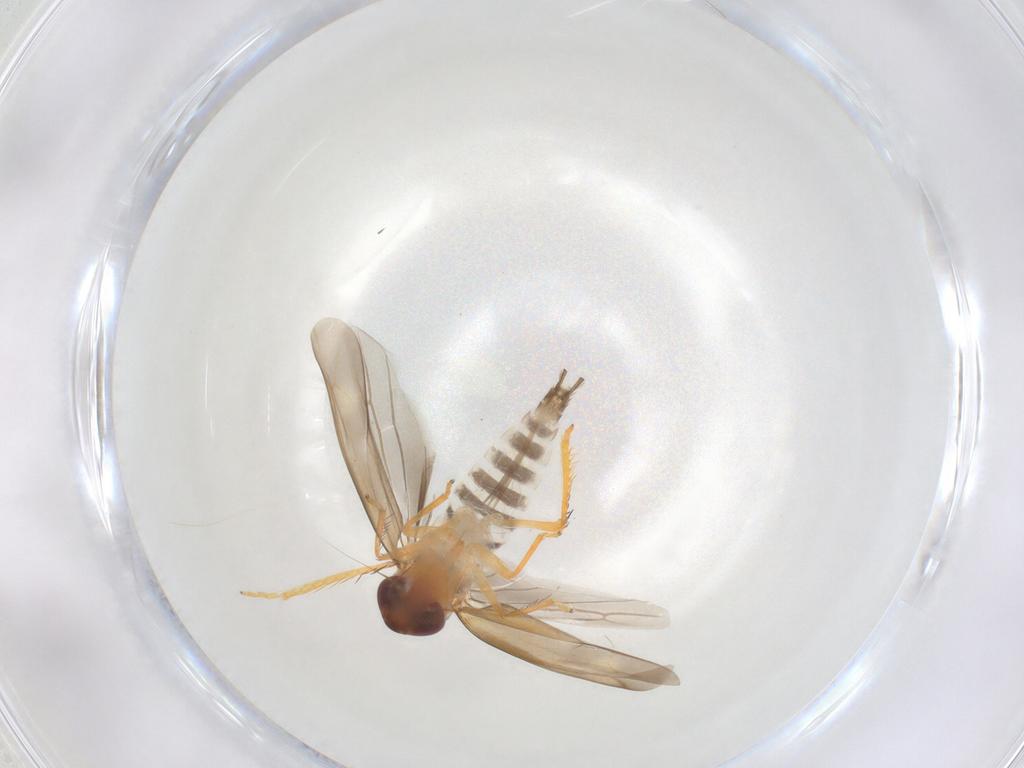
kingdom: Animalia
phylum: Arthropoda
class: Insecta
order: Hemiptera
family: Cicadellidae
